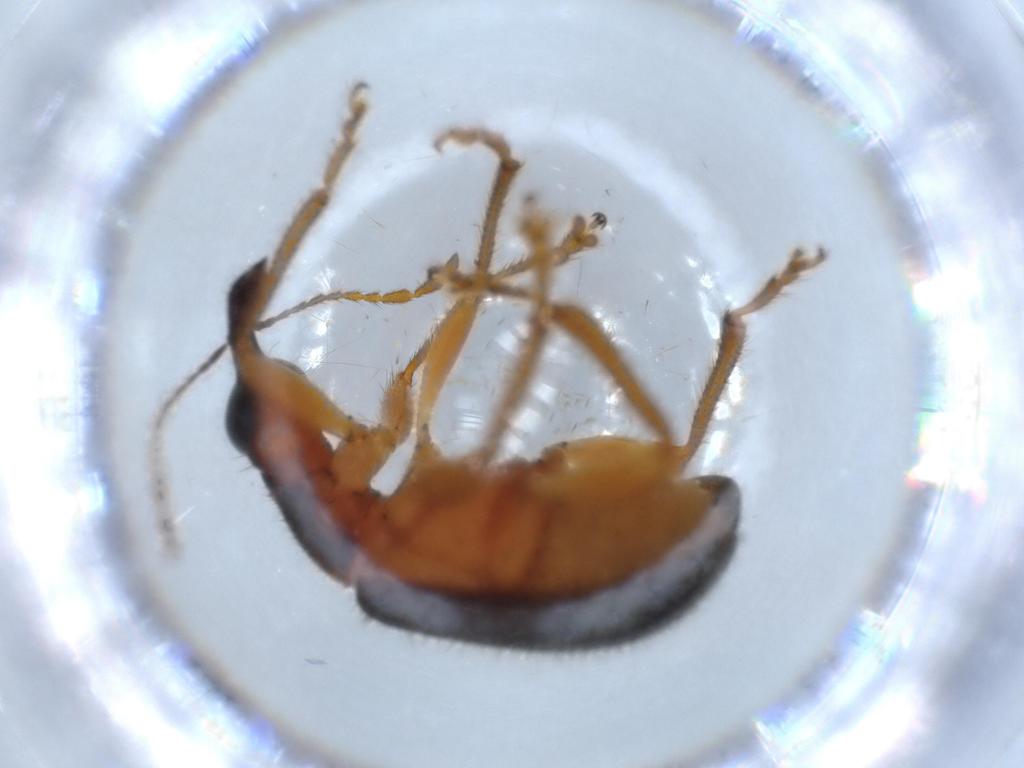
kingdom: Animalia
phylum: Arthropoda
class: Insecta
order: Coleoptera
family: Attelabidae
